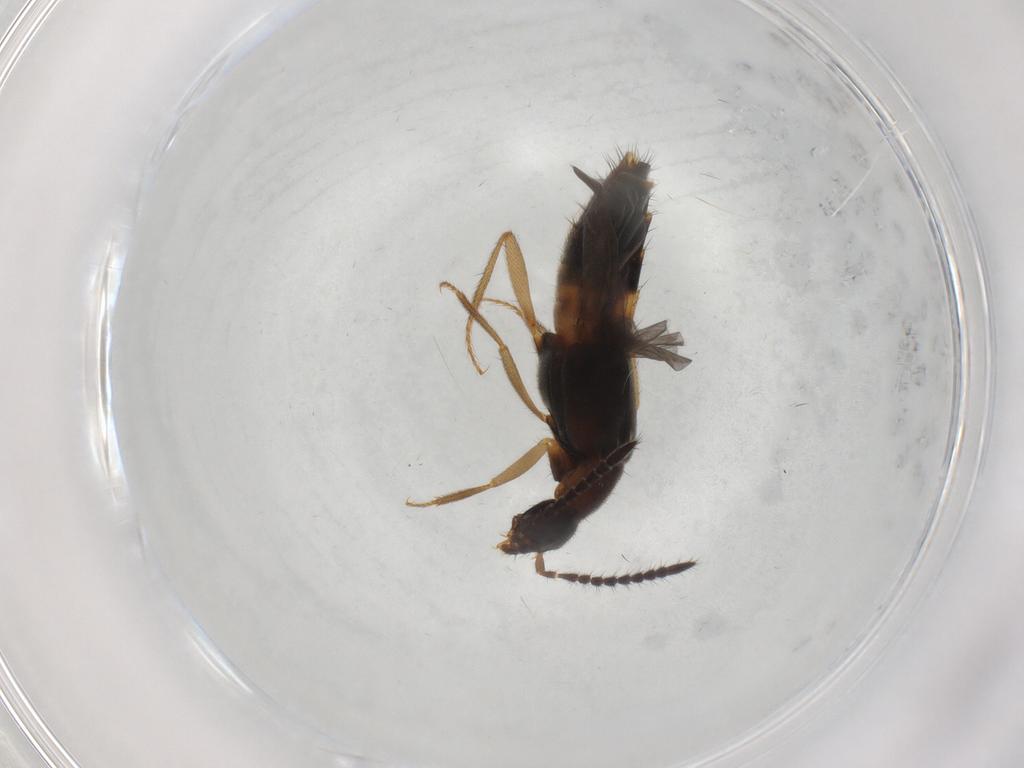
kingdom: Animalia
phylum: Arthropoda
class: Insecta
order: Coleoptera
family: Staphylinidae
